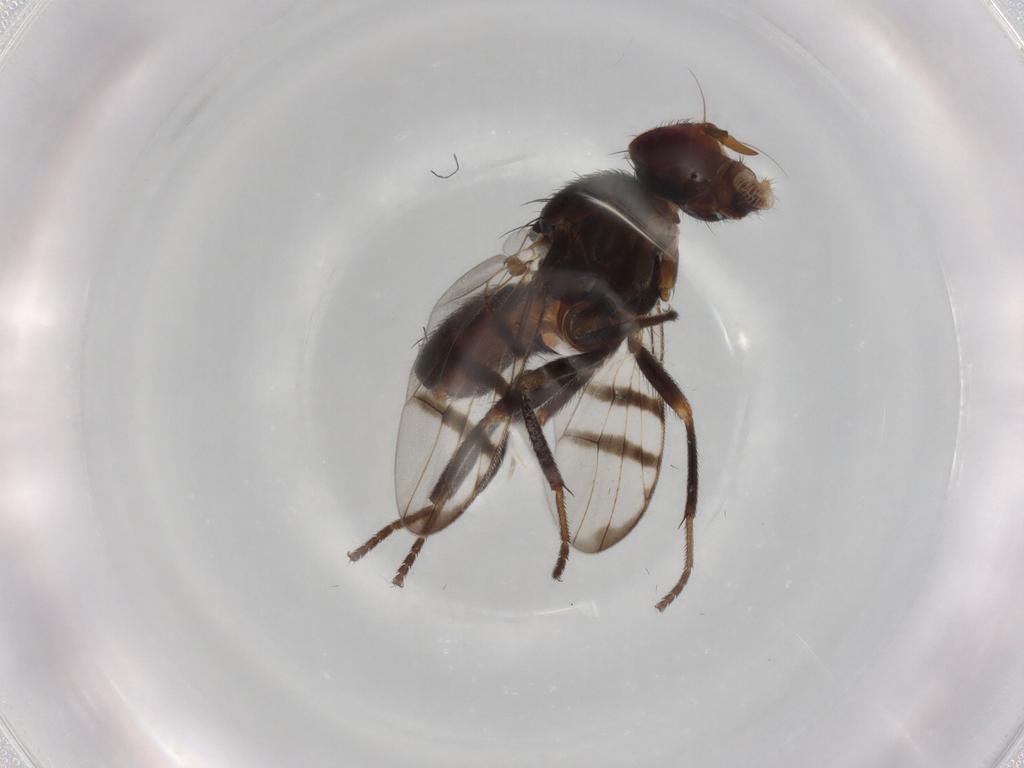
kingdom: Animalia
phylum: Arthropoda
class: Insecta
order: Diptera
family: Platystomatidae
